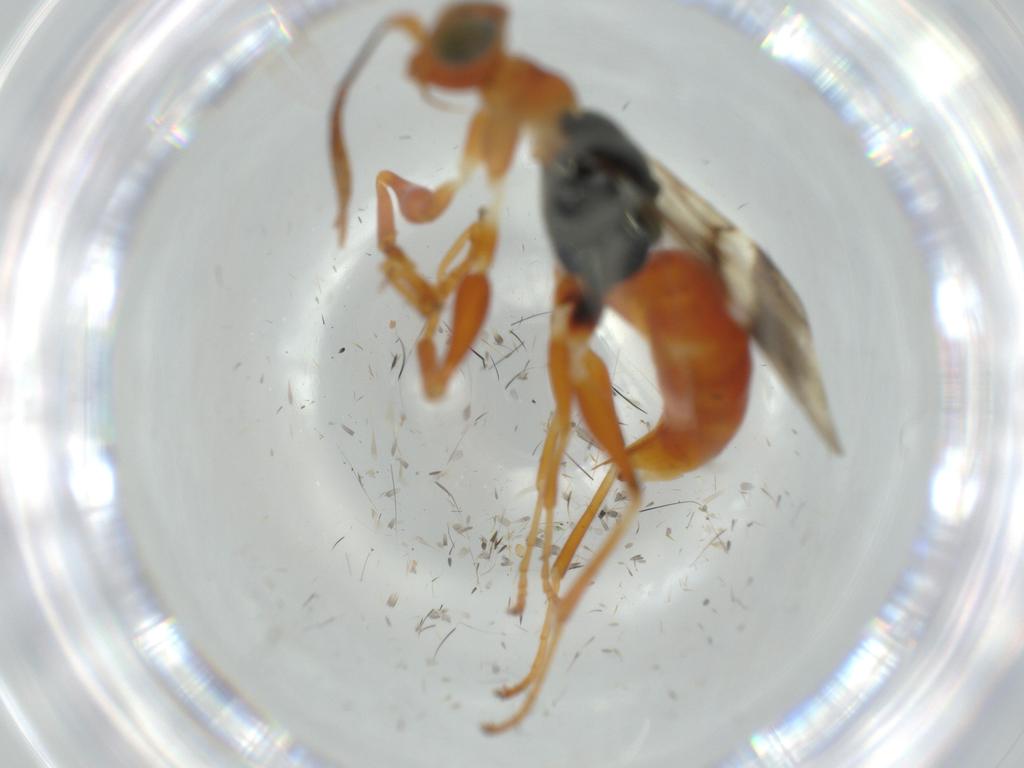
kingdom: Animalia
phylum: Arthropoda
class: Insecta
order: Hymenoptera
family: Dryinidae
